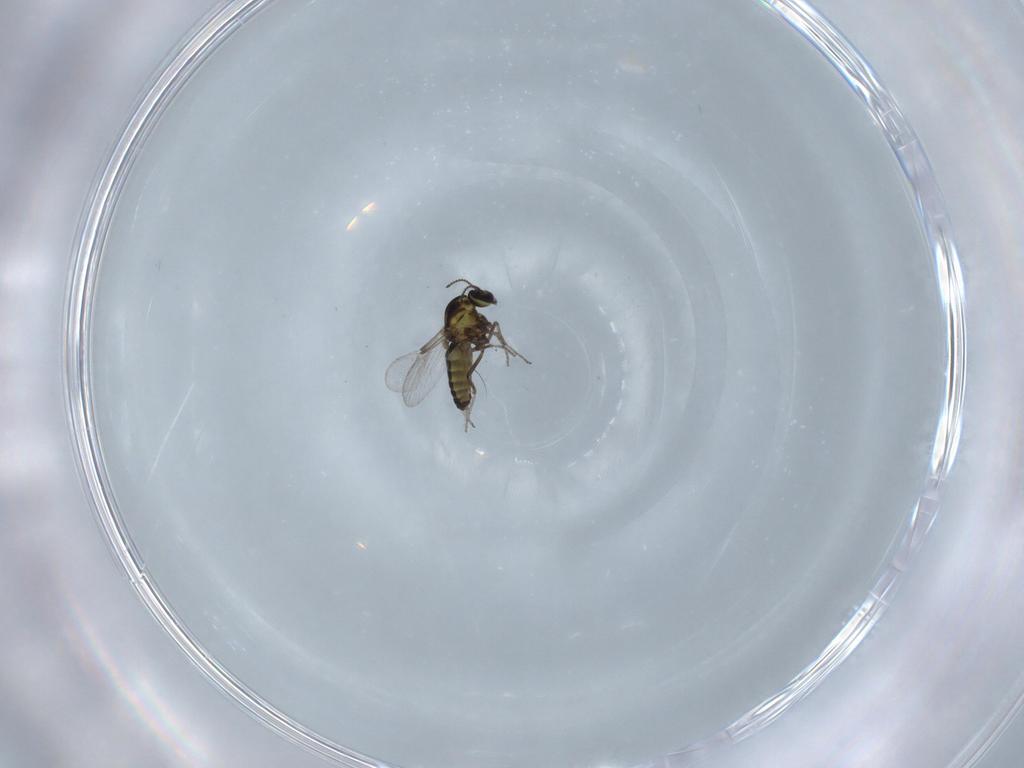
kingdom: Animalia
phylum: Arthropoda
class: Insecta
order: Diptera
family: Ceratopogonidae
